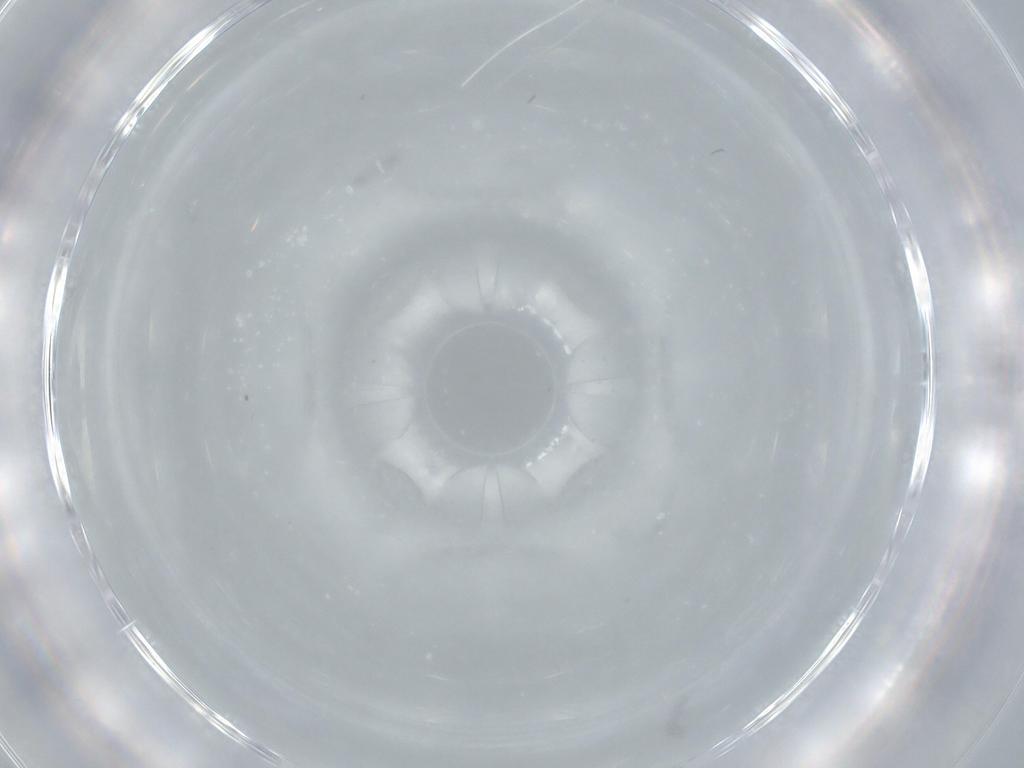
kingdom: Animalia
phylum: Arthropoda
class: Insecta
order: Hemiptera
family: Cicadellidae
